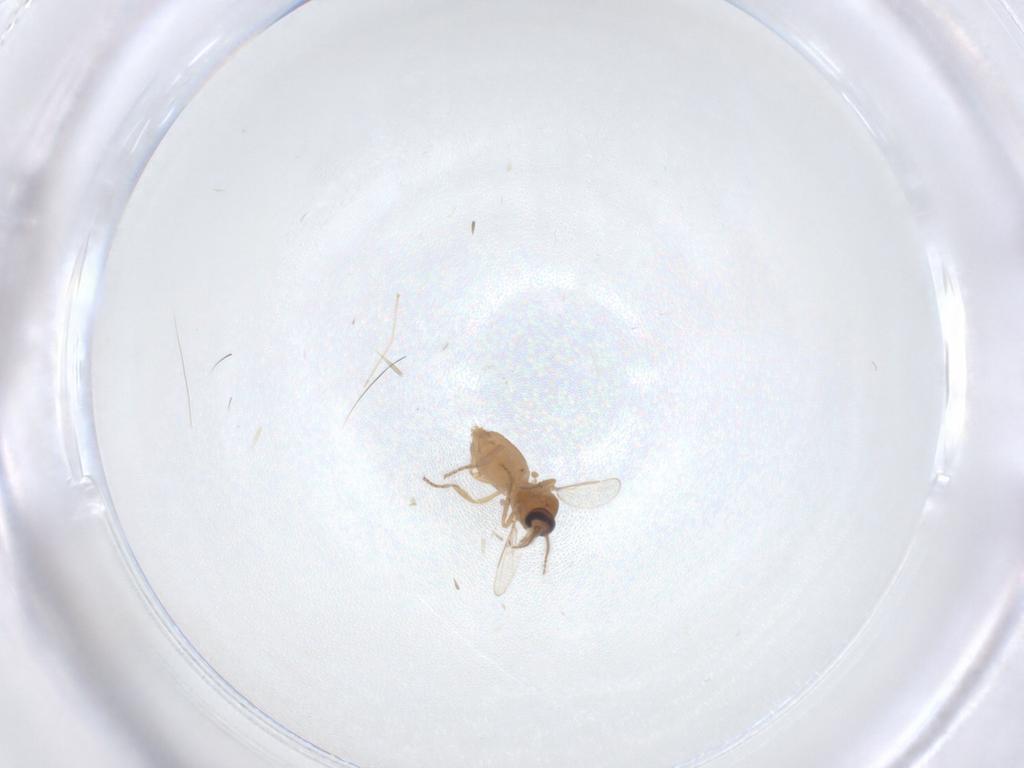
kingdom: Animalia
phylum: Arthropoda
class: Insecta
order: Diptera
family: Ceratopogonidae
